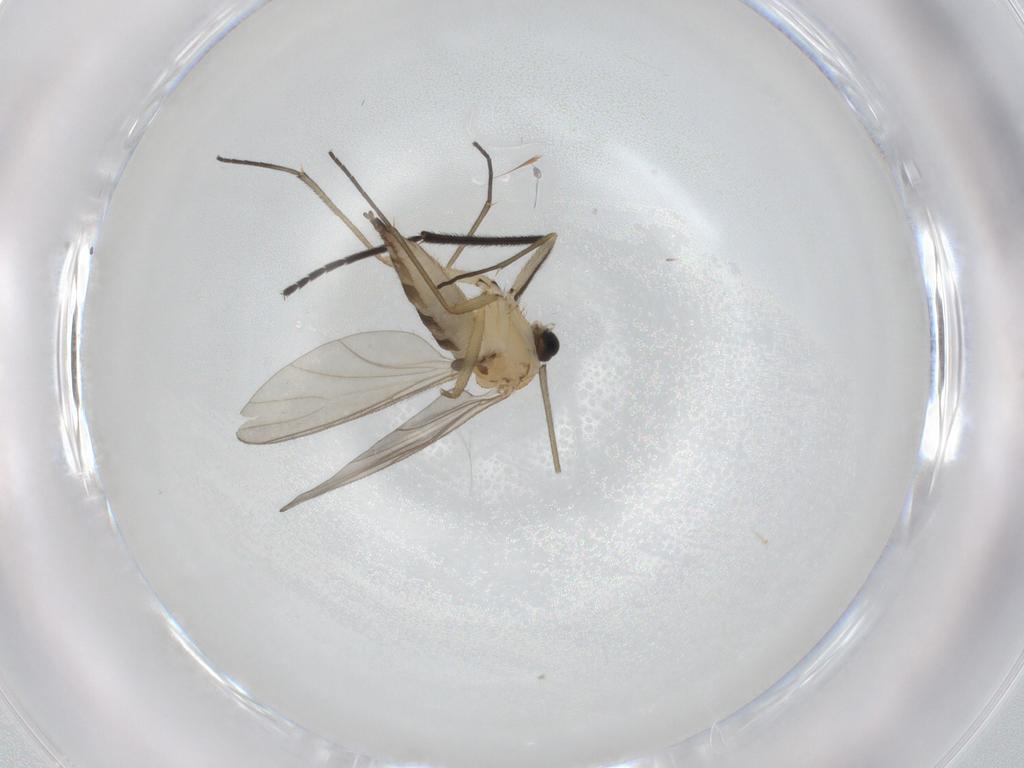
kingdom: Animalia
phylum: Arthropoda
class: Insecta
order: Diptera
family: Sciaridae
